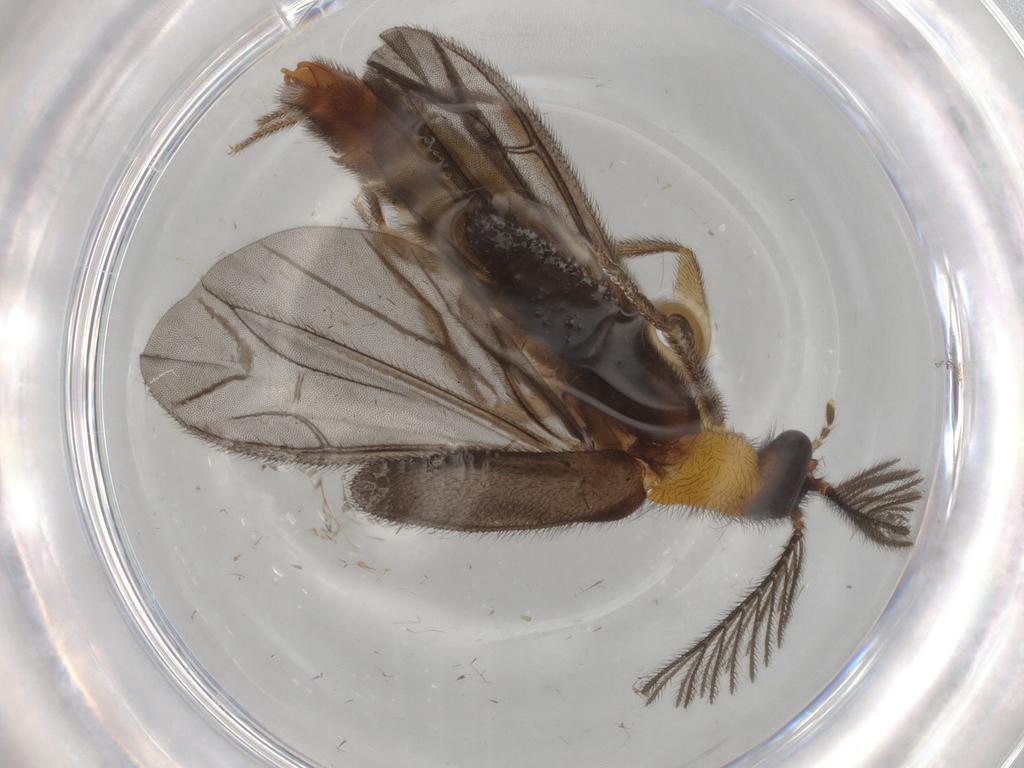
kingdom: Animalia
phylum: Arthropoda
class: Insecta
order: Coleoptera
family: Phengodidae
